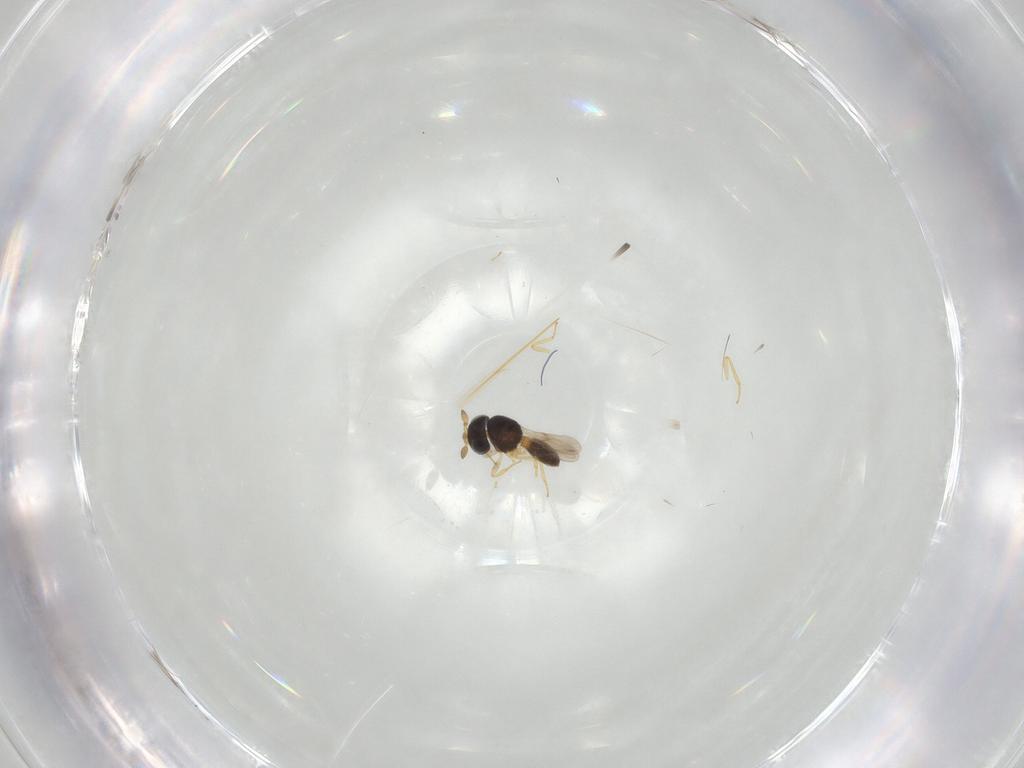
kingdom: Animalia
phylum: Arthropoda
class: Insecta
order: Hymenoptera
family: Scelionidae
